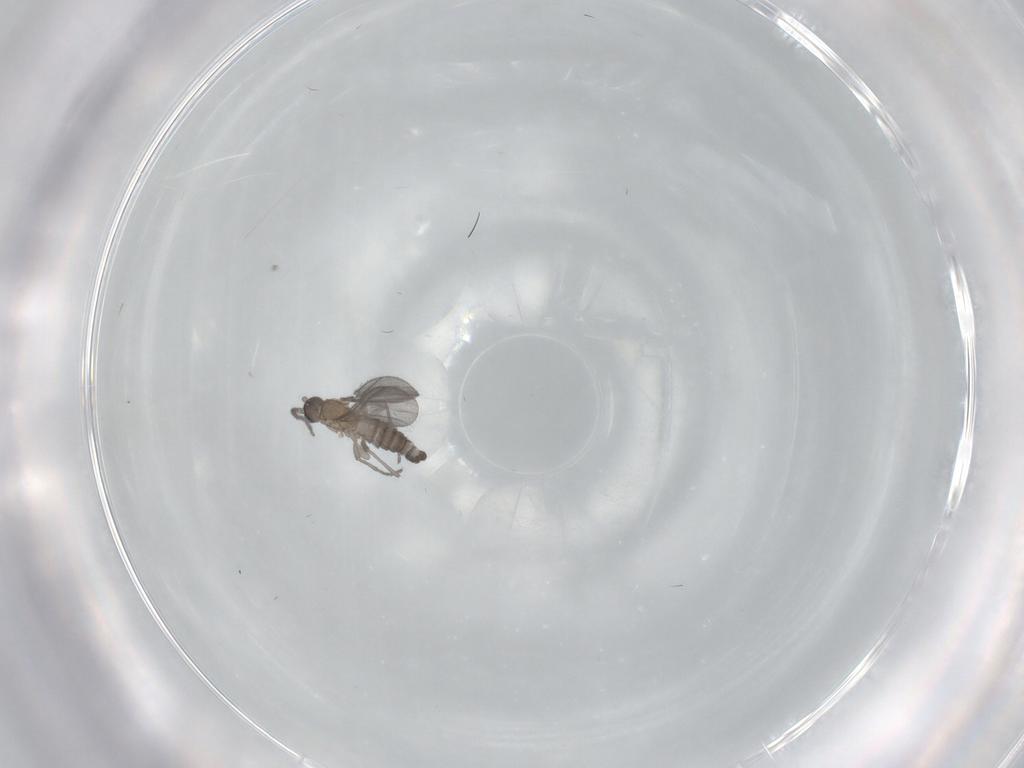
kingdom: Animalia
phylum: Arthropoda
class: Insecta
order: Diptera
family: Sciaridae
